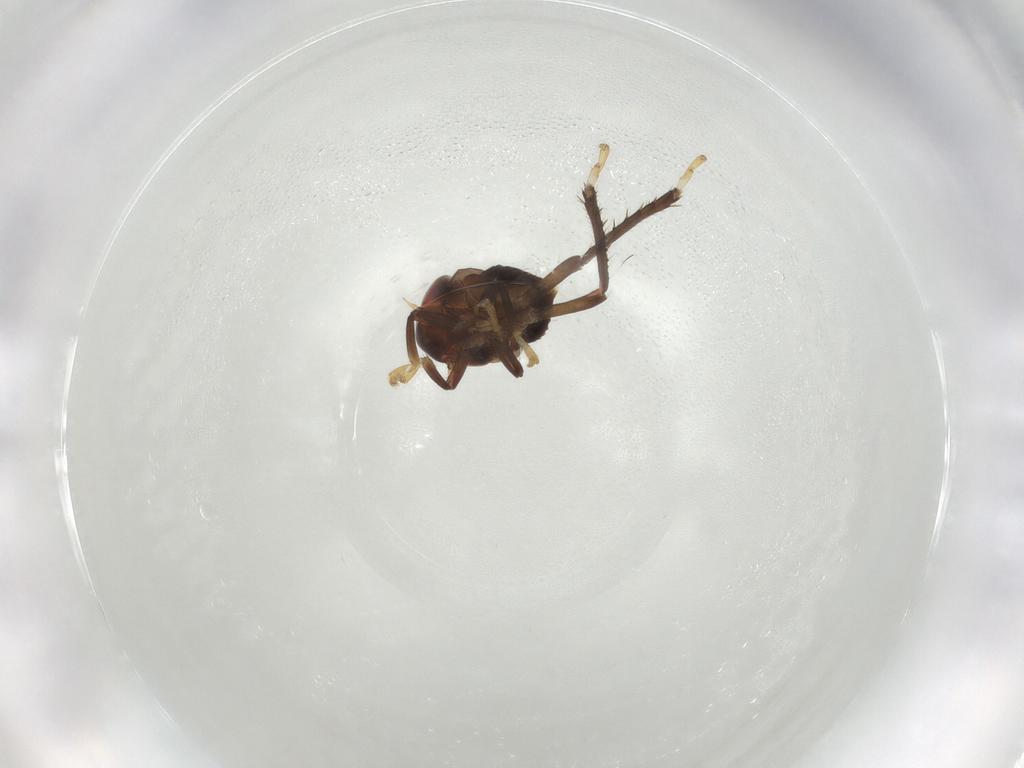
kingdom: Animalia
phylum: Arthropoda
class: Insecta
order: Hemiptera
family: Cicadellidae
